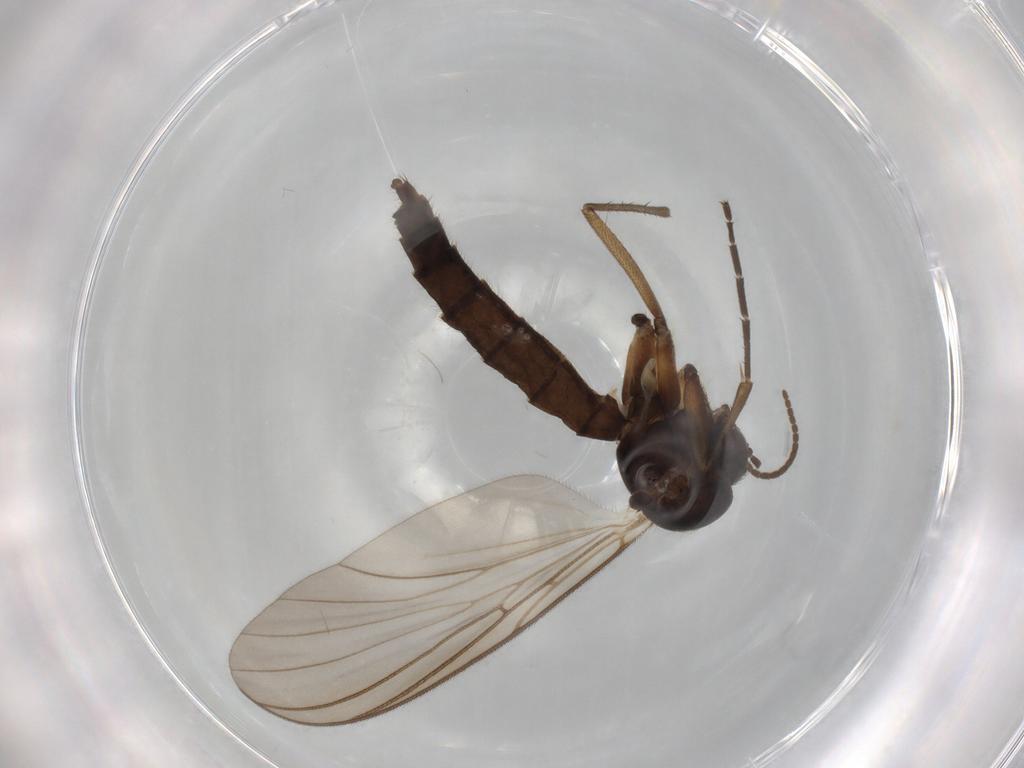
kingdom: Animalia
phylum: Arthropoda
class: Insecta
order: Diptera
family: Mycetophilidae
